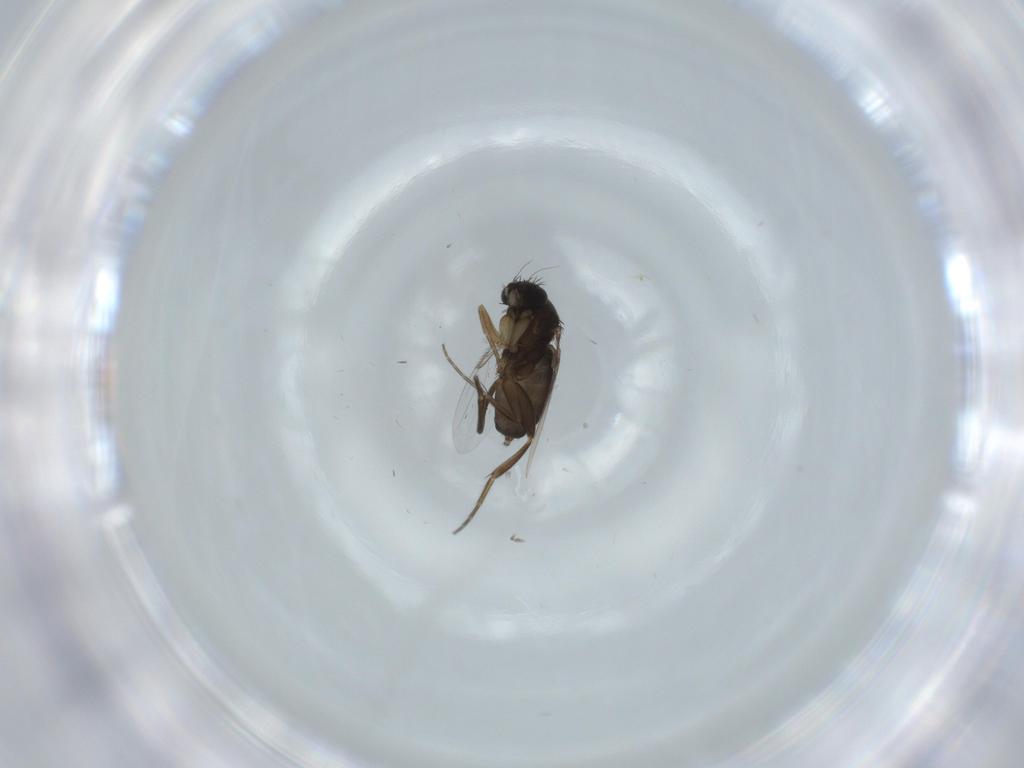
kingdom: Animalia
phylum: Arthropoda
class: Insecta
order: Diptera
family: Phoridae
